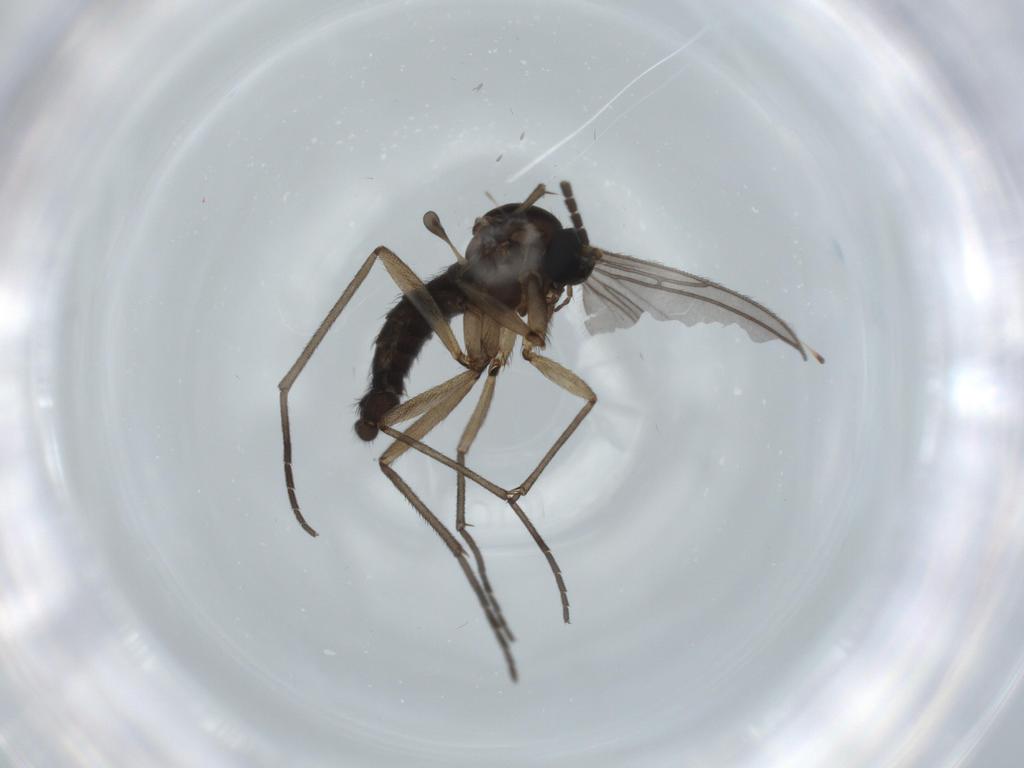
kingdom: Animalia
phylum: Arthropoda
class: Insecta
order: Diptera
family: Sciaridae
